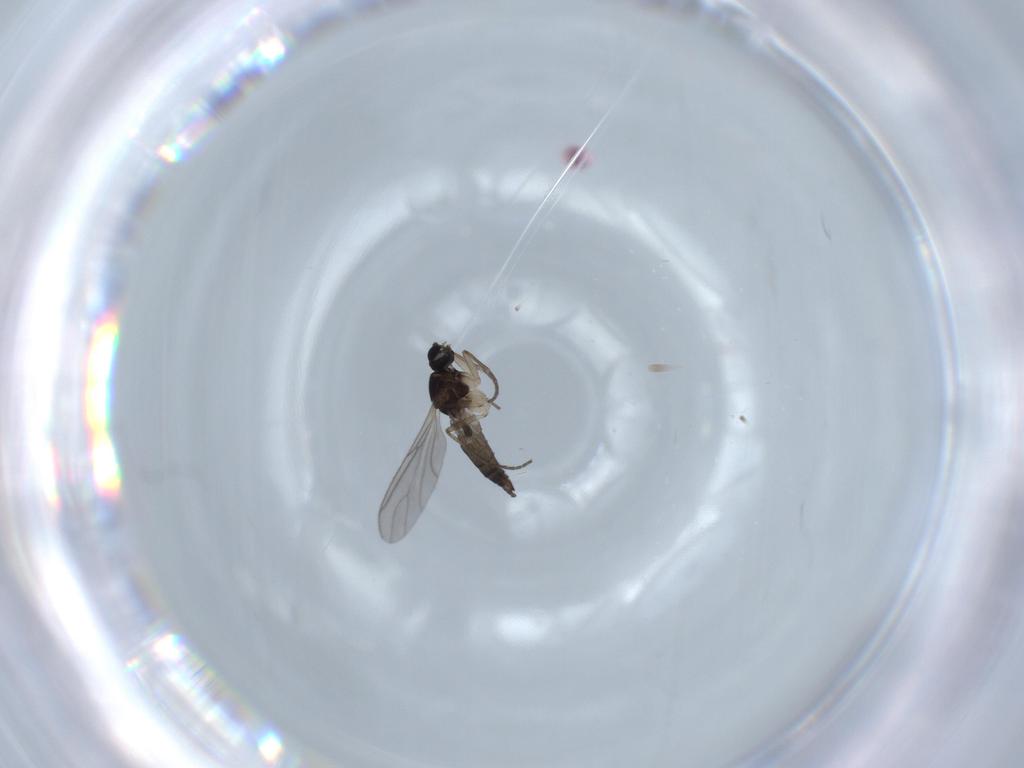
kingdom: Animalia
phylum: Arthropoda
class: Insecta
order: Diptera
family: Sciaridae
